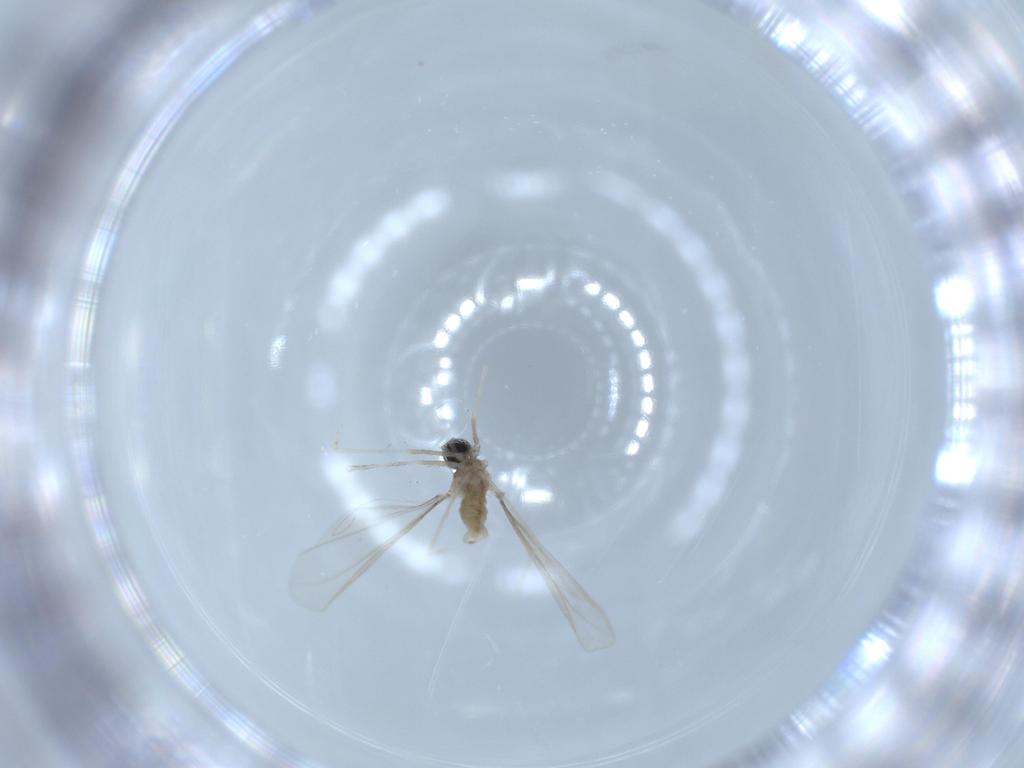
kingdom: Animalia
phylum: Arthropoda
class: Insecta
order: Diptera
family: Cecidomyiidae
